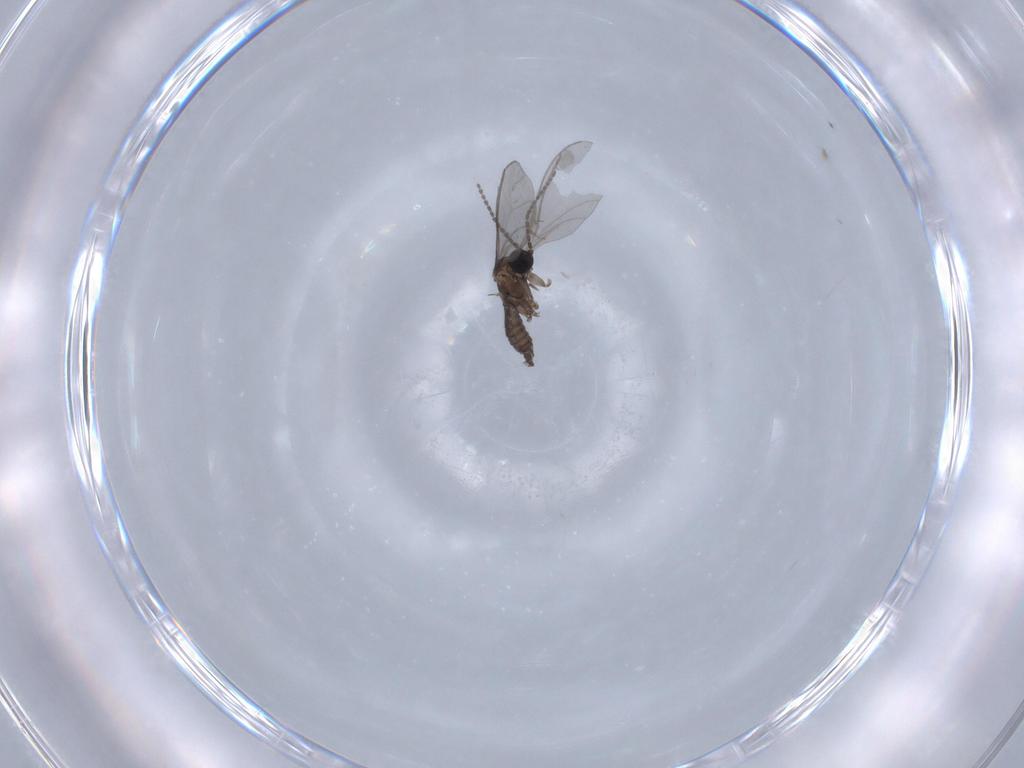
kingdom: Animalia
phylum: Arthropoda
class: Insecta
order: Diptera
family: Sciaridae
